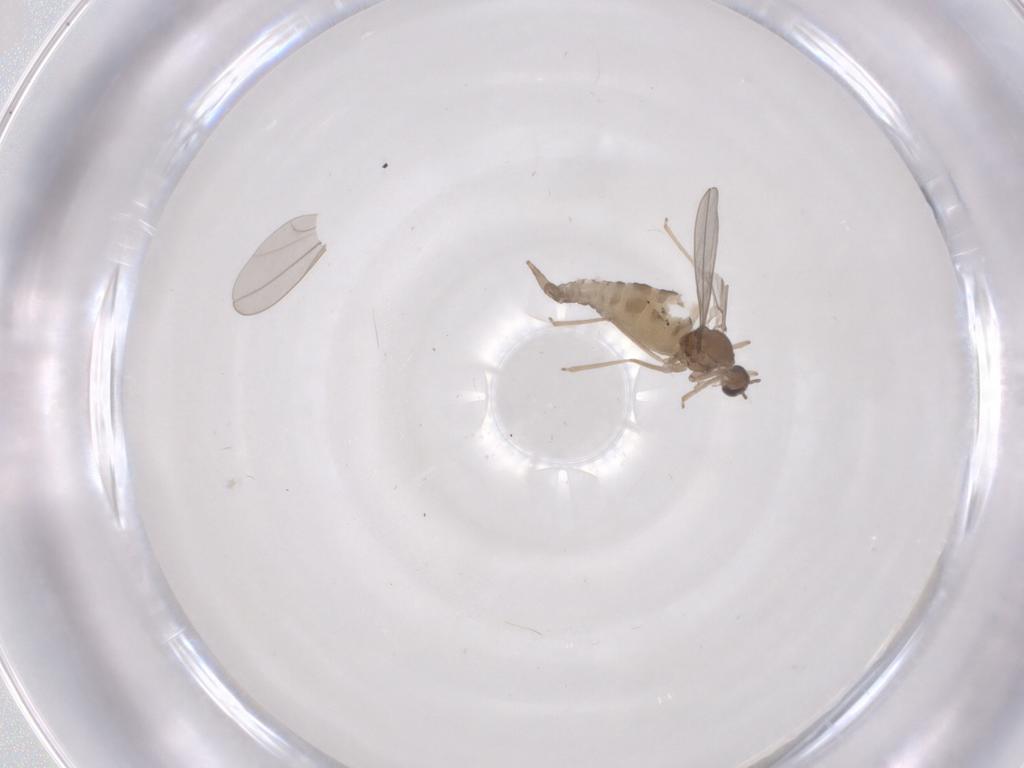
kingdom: Animalia
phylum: Arthropoda
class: Insecta
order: Diptera
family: Cecidomyiidae
